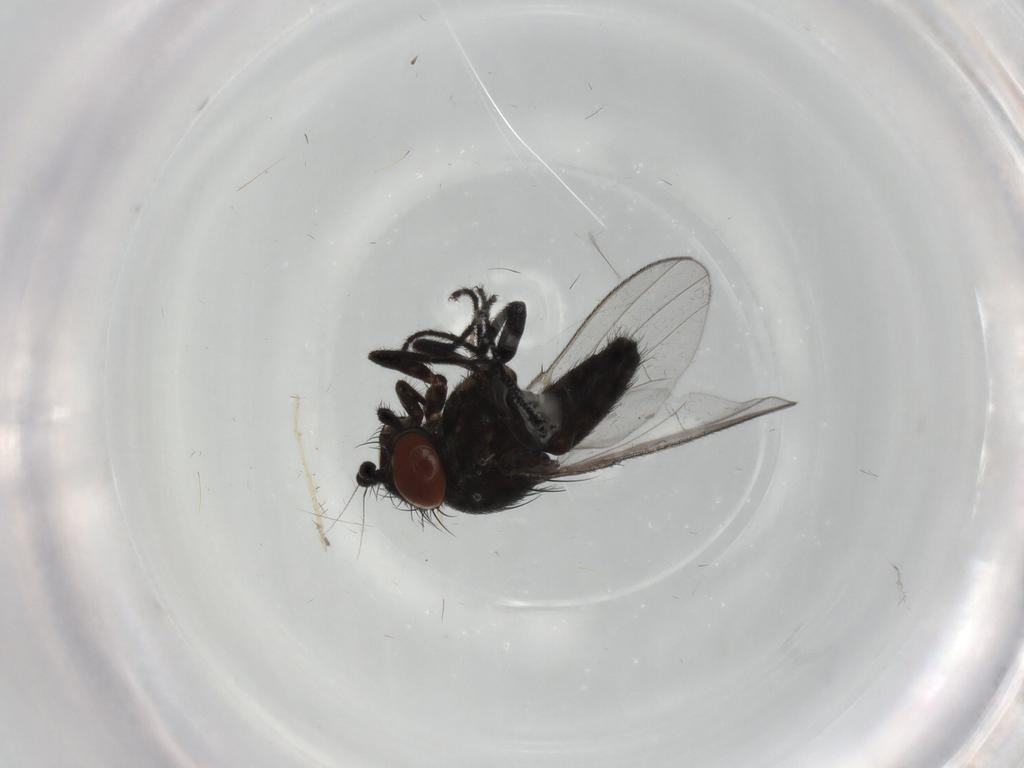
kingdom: Animalia
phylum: Arthropoda
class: Insecta
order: Diptera
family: Milichiidae
